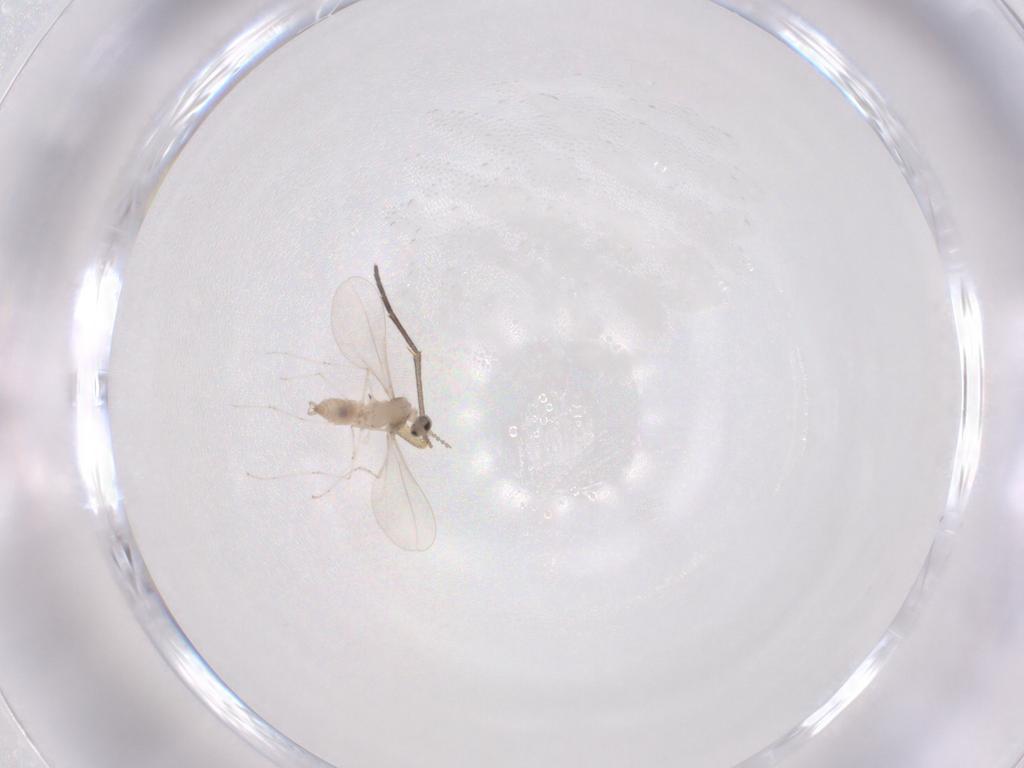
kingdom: Animalia
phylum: Arthropoda
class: Insecta
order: Diptera
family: Cecidomyiidae
